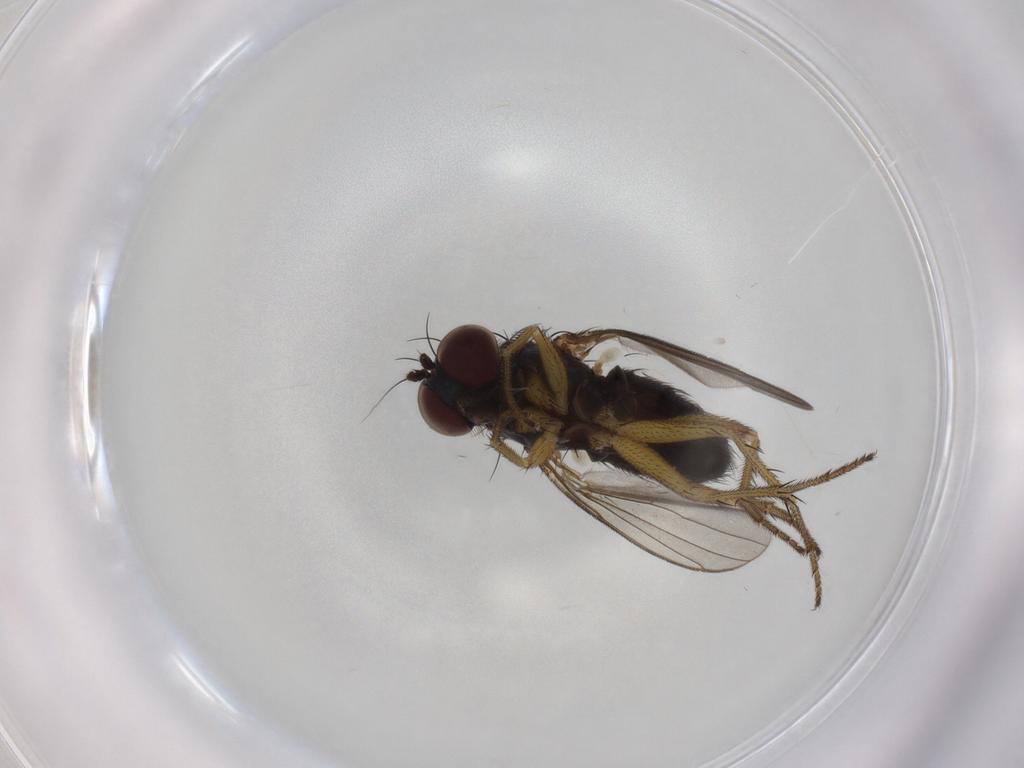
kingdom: Animalia
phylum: Arthropoda
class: Insecta
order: Diptera
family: Dolichopodidae
